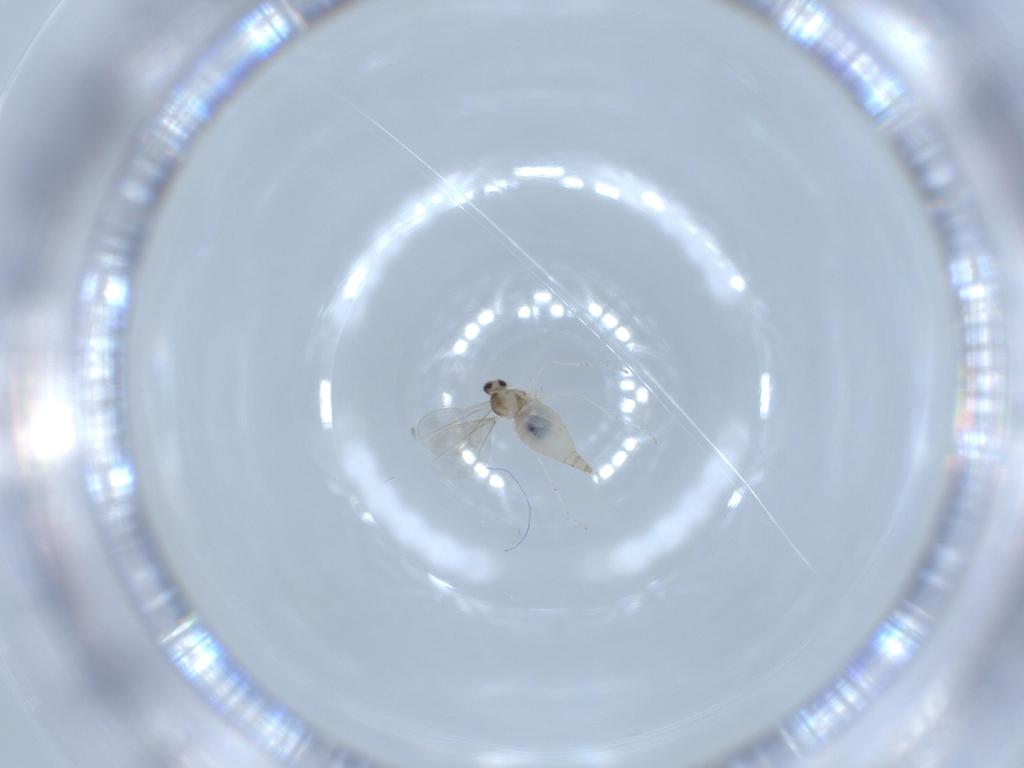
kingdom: Animalia
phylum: Arthropoda
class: Insecta
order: Diptera
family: Cecidomyiidae
